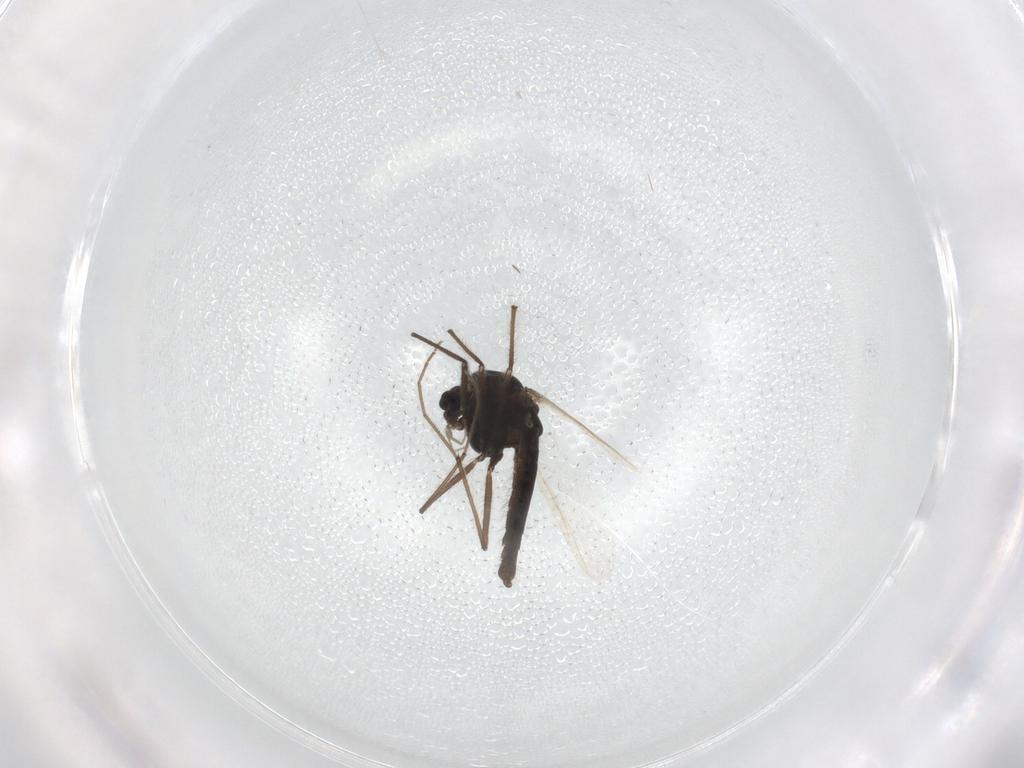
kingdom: Animalia
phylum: Arthropoda
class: Insecta
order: Diptera
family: Chironomidae
